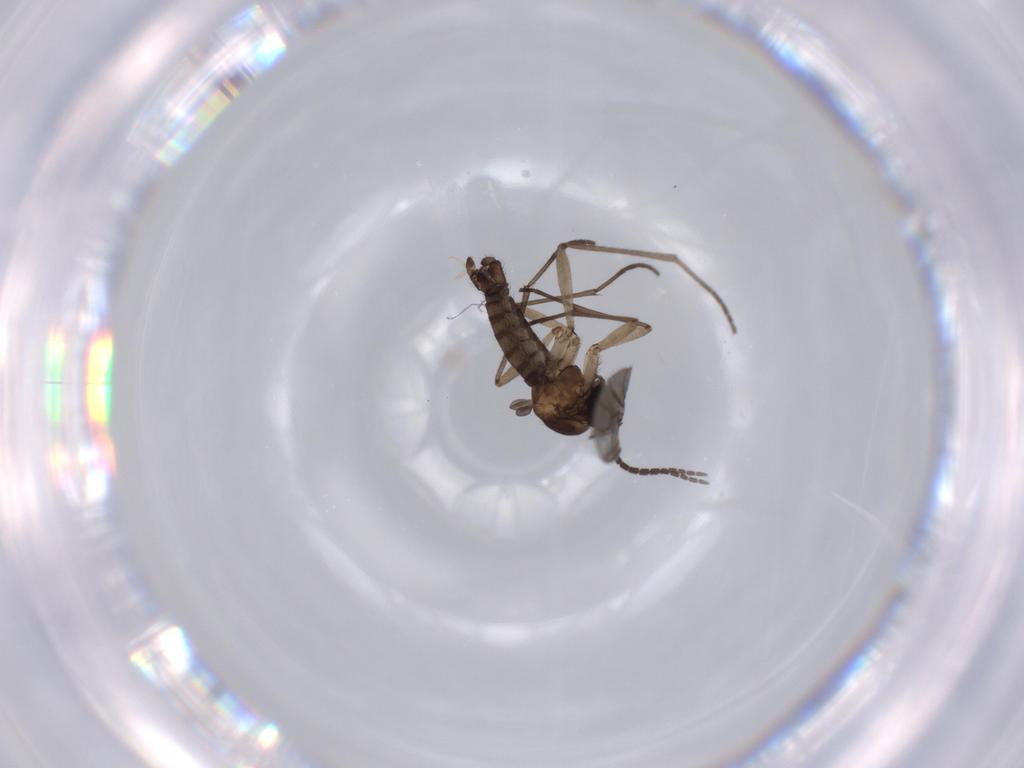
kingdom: Animalia
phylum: Arthropoda
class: Insecta
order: Diptera
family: Sciaridae
